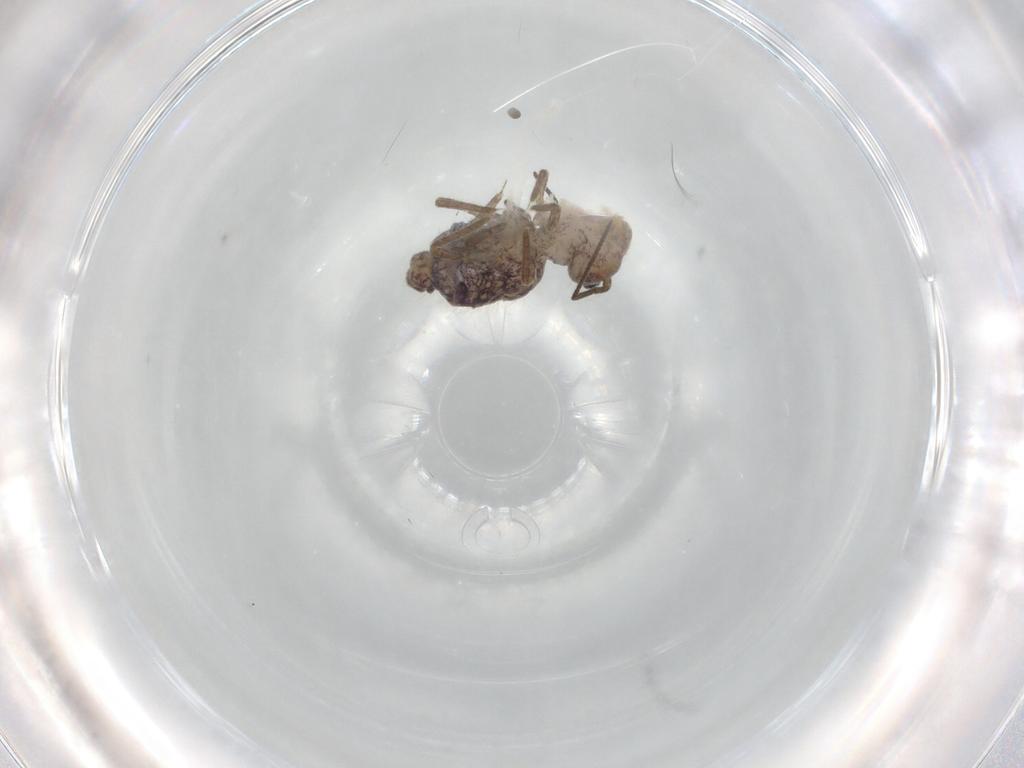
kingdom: Animalia
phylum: Arthropoda
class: Collembola
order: Symphypleona
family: Sminthuridae
